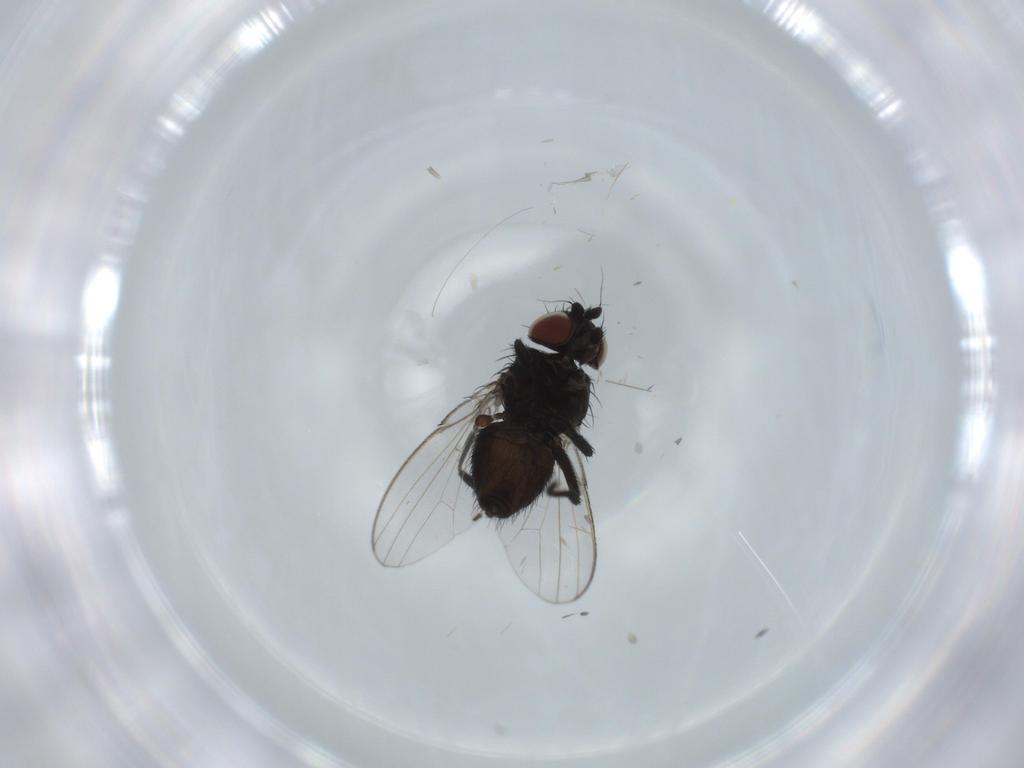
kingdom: Animalia
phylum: Arthropoda
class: Insecta
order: Diptera
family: Milichiidae
